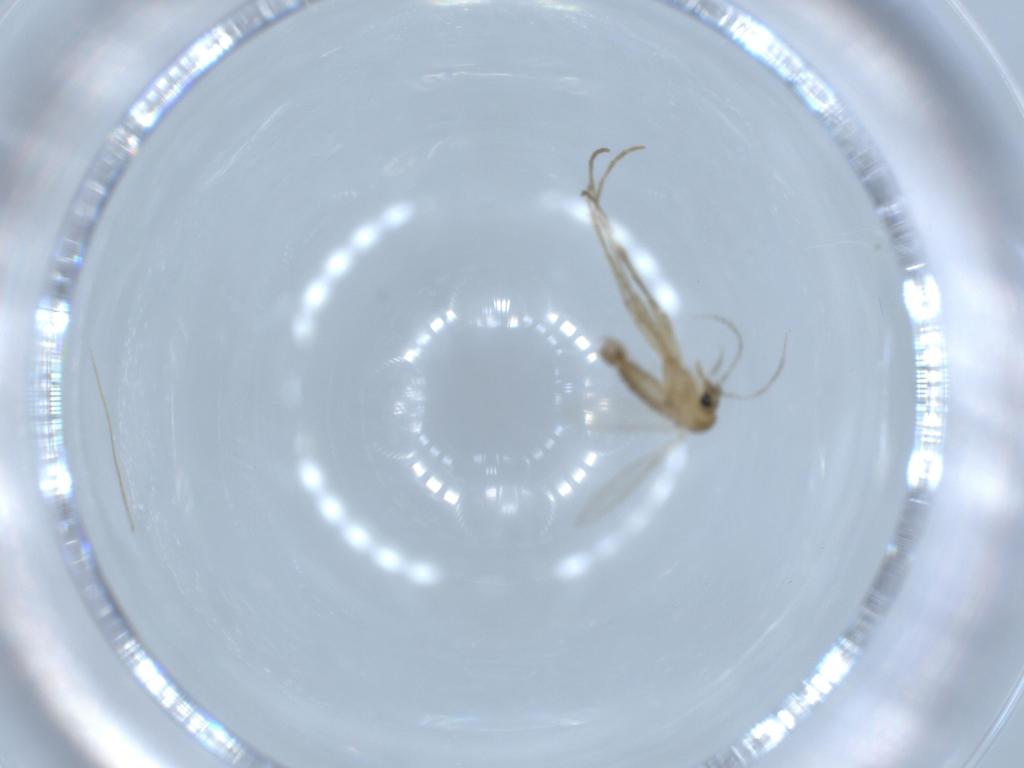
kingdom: Animalia
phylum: Arthropoda
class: Insecta
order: Diptera
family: Psychodidae
